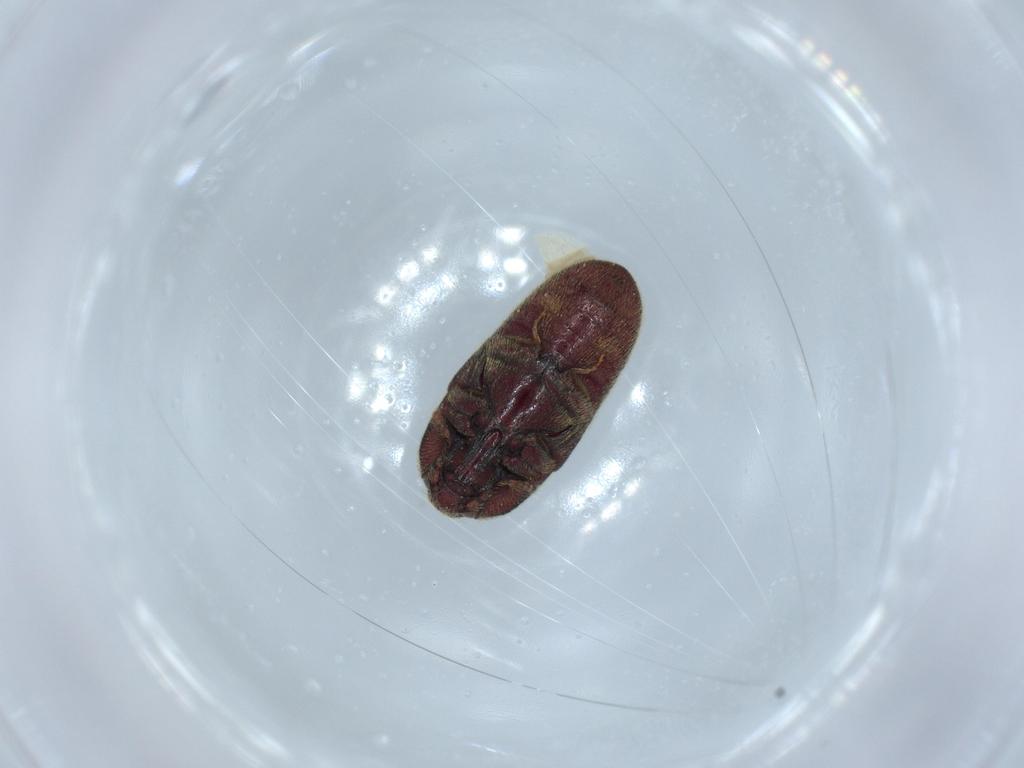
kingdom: Animalia
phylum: Arthropoda
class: Insecta
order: Coleoptera
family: Throscidae
